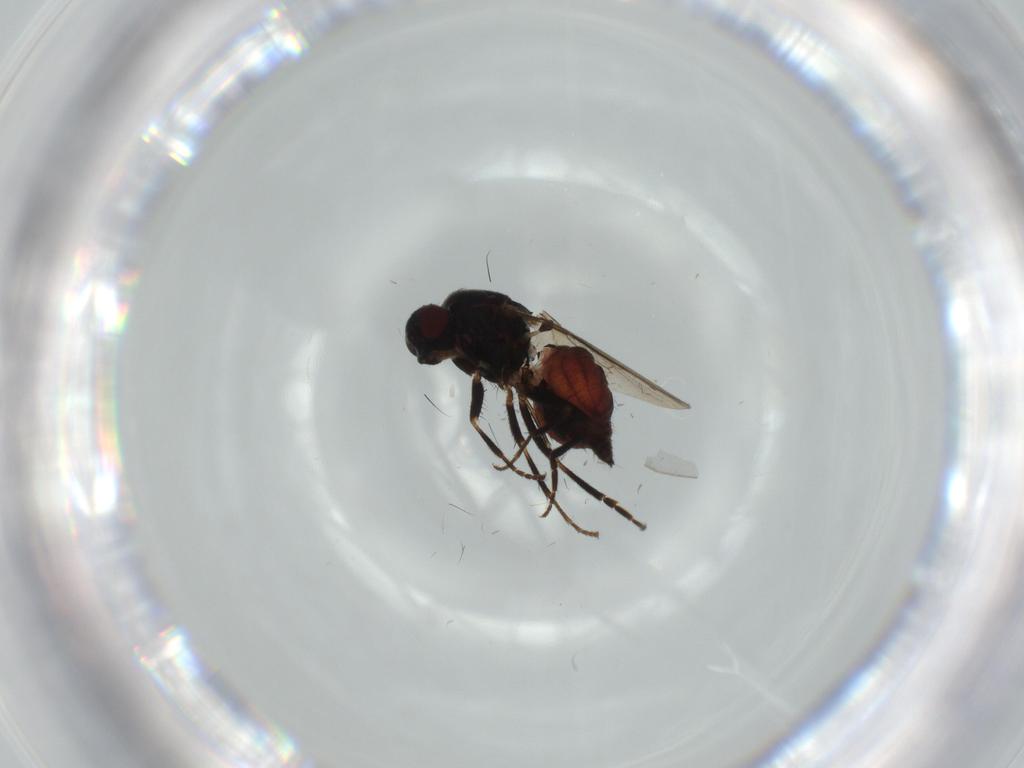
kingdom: Animalia
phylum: Arthropoda
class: Insecta
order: Diptera
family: Sphaeroceridae
